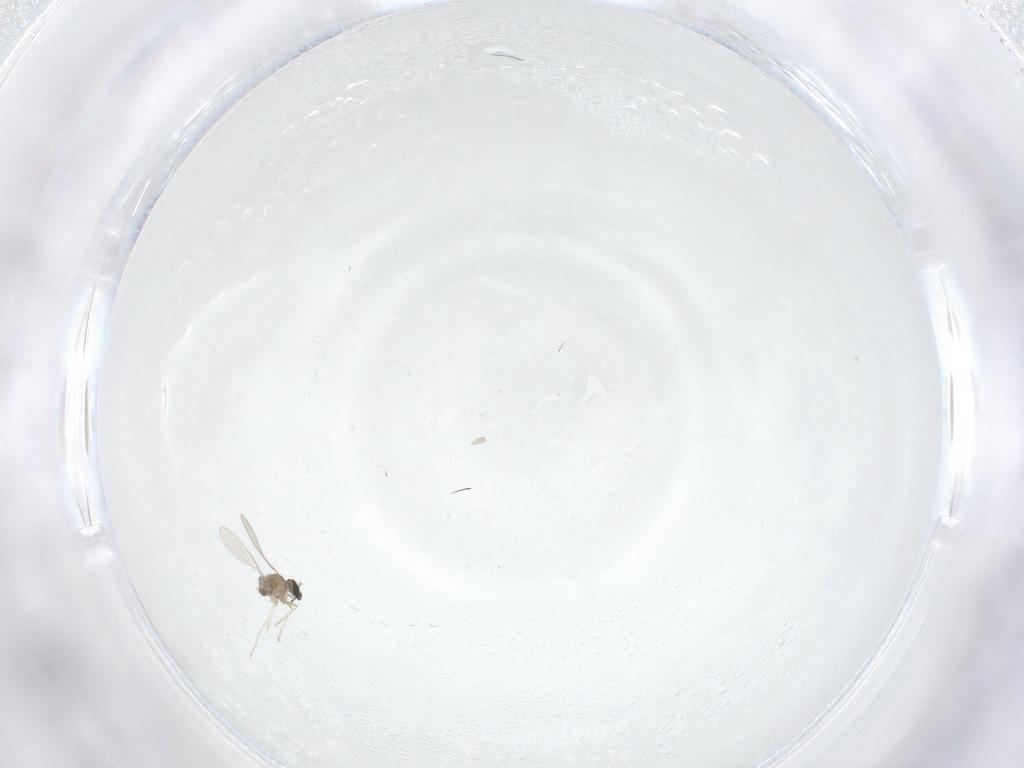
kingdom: Animalia
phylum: Arthropoda
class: Insecta
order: Diptera
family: Cecidomyiidae
